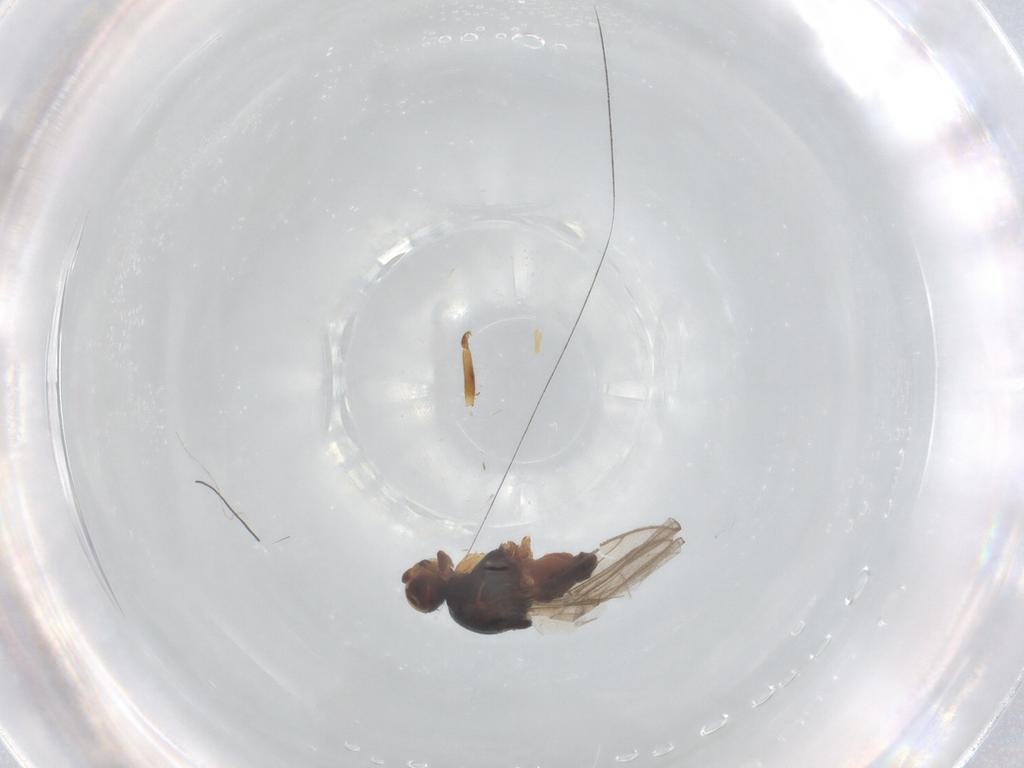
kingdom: Animalia
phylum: Arthropoda
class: Insecta
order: Diptera
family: Chloropidae
